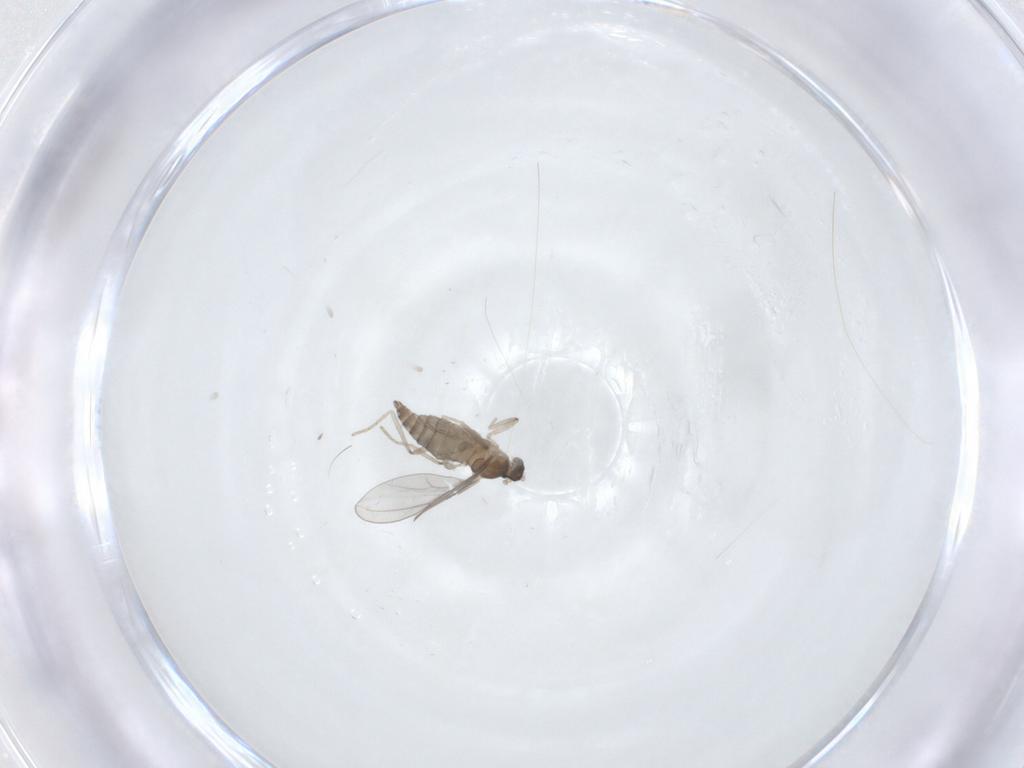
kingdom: Animalia
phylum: Arthropoda
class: Insecta
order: Diptera
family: Cecidomyiidae
